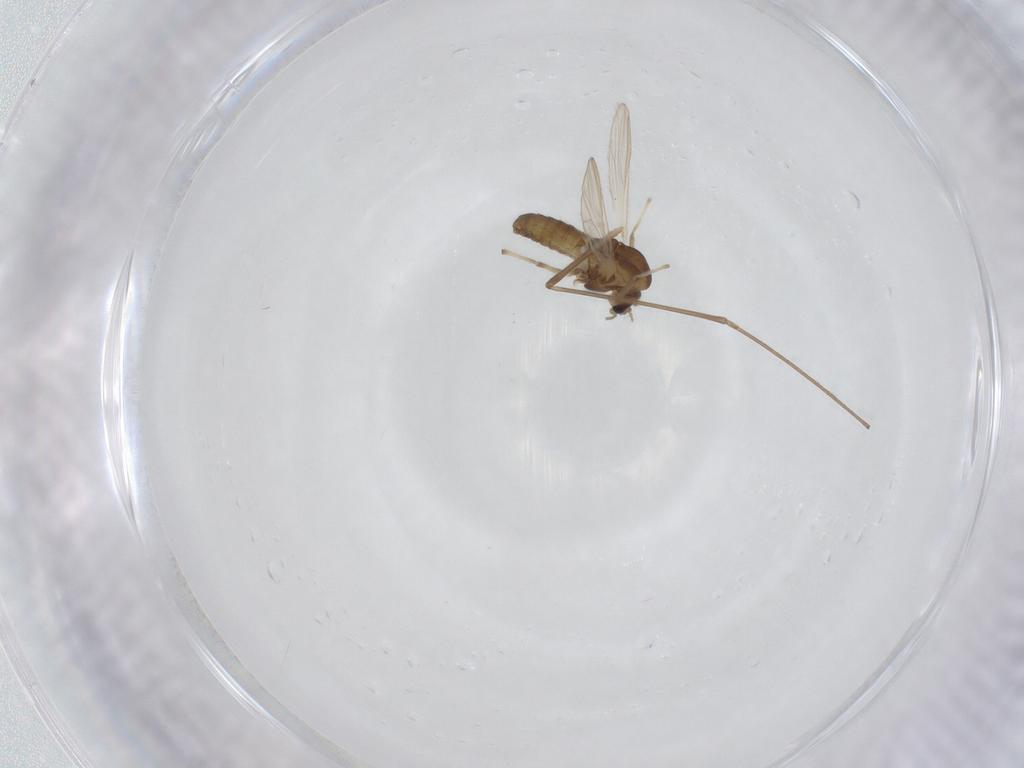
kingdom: Animalia
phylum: Arthropoda
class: Insecta
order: Diptera
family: Chironomidae
